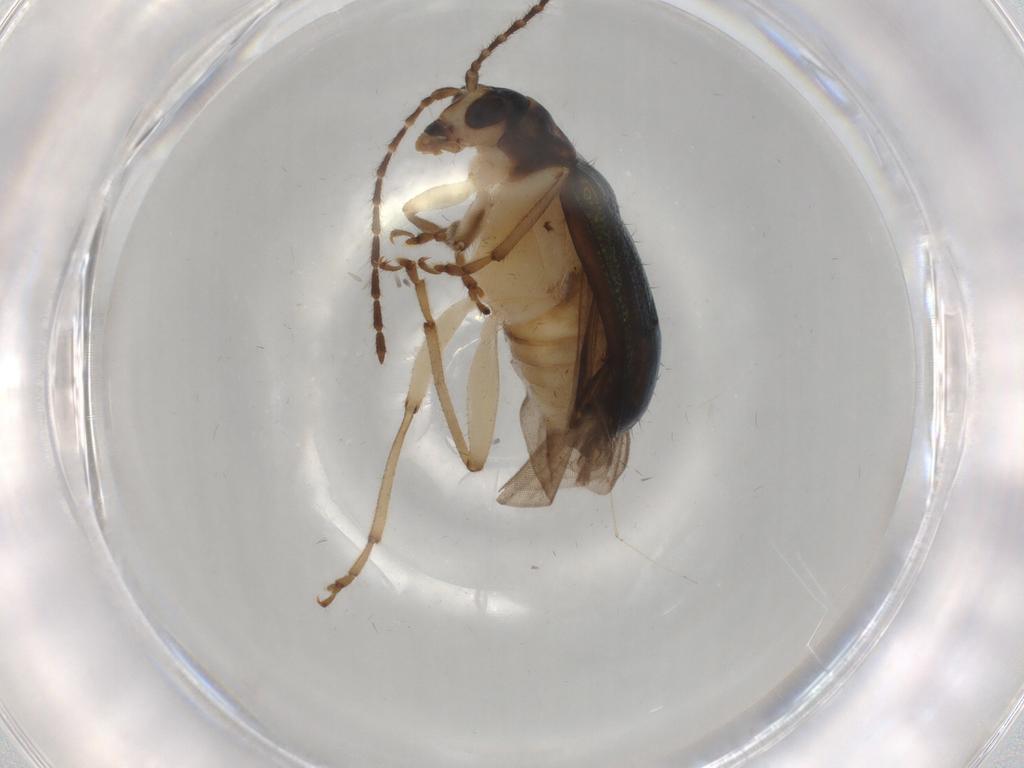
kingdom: Animalia
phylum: Arthropoda
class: Insecta
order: Coleoptera
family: Chrysomelidae
